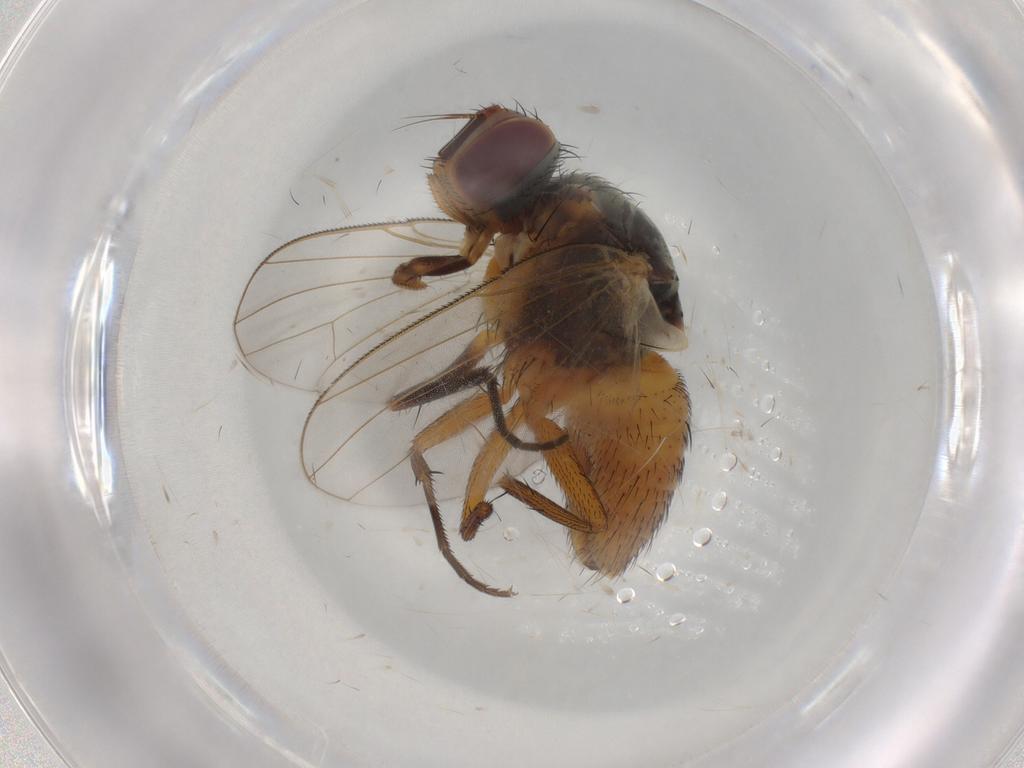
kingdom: Animalia
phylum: Arthropoda
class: Insecta
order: Diptera
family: Muscidae
